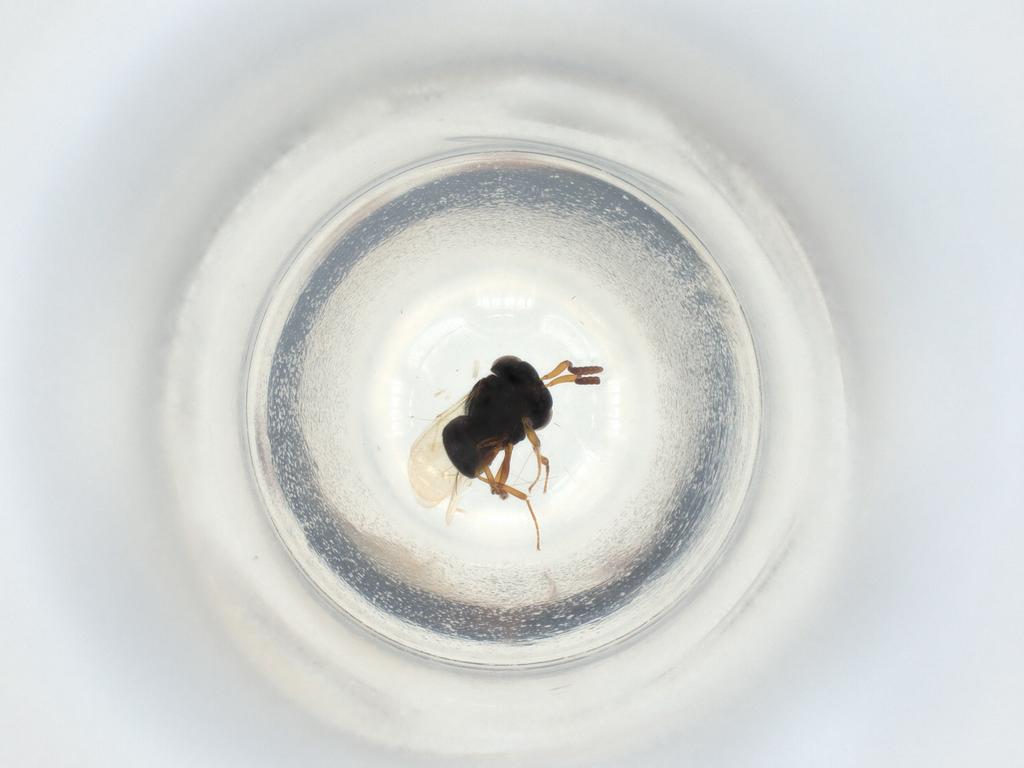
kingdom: Animalia
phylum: Arthropoda
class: Insecta
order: Hymenoptera
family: Scelionidae
